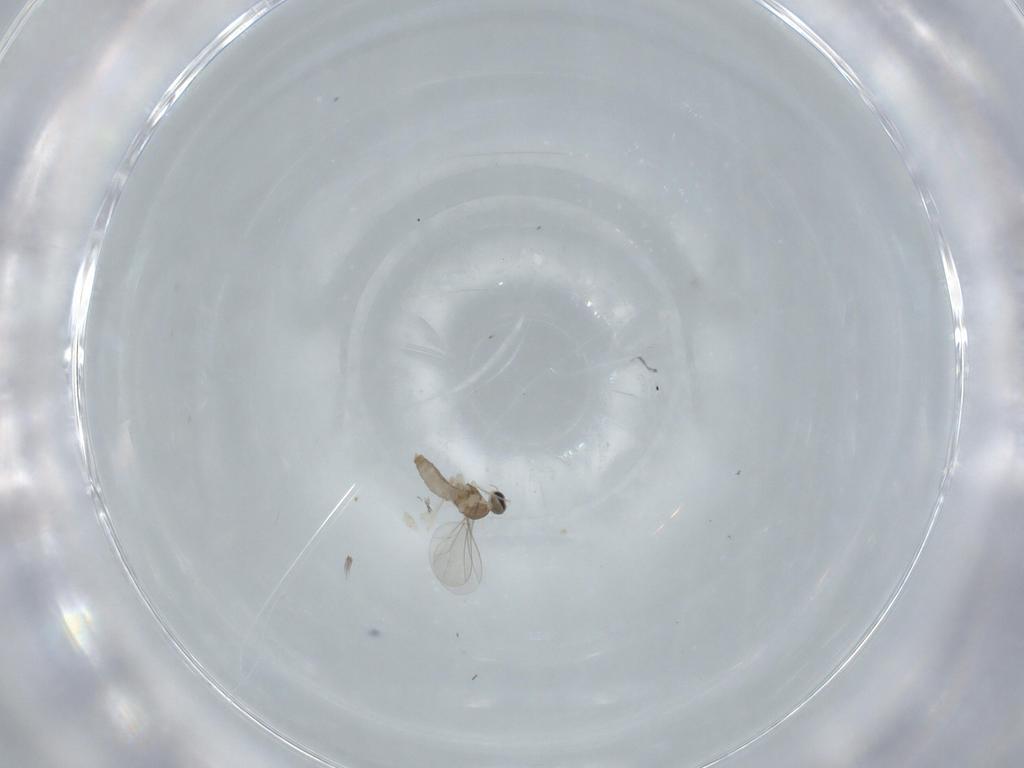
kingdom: Animalia
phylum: Arthropoda
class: Insecta
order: Diptera
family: Cecidomyiidae
